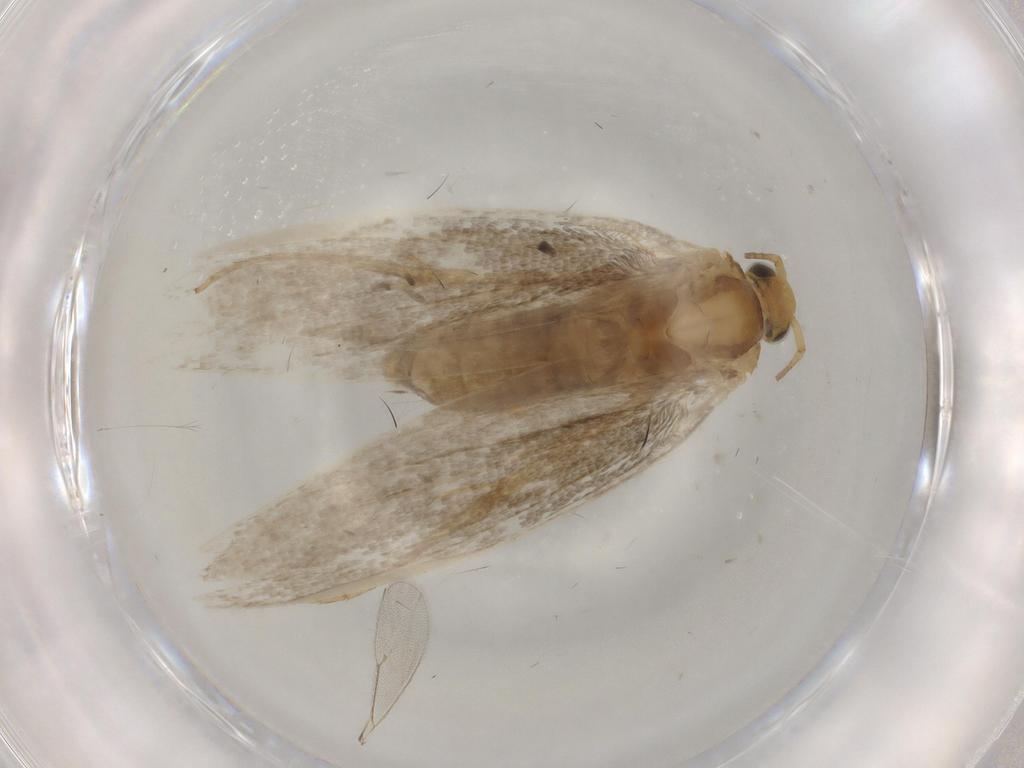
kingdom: Animalia
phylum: Arthropoda
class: Insecta
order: Lepidoptera
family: Argyresthiidae
